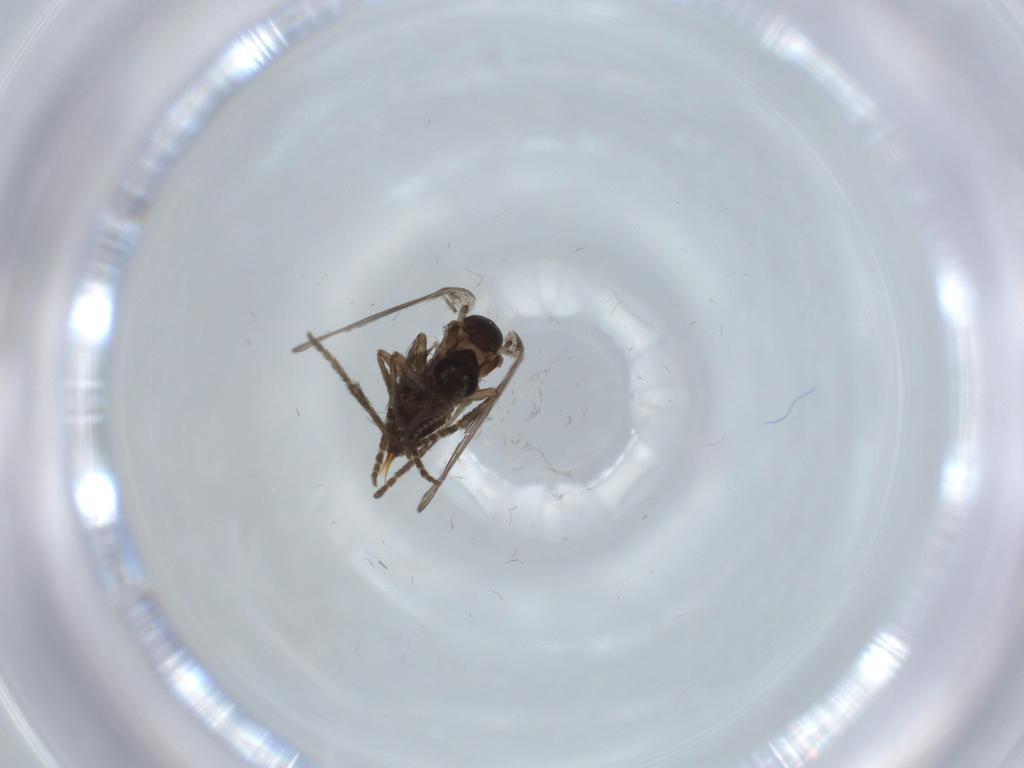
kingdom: Animalia
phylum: Arthropoda
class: Insecta
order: Diptera
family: Psychodidae
